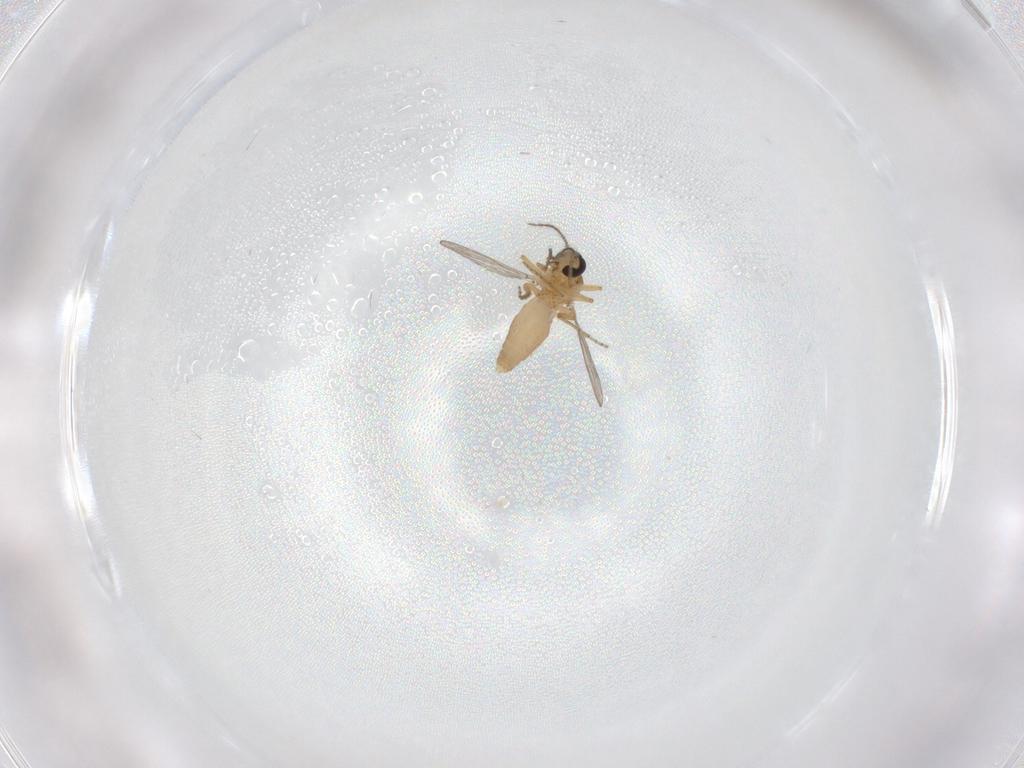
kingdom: Animalia
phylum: Arthropoda
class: Insecta
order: Diptera
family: Ceratopogonidae
